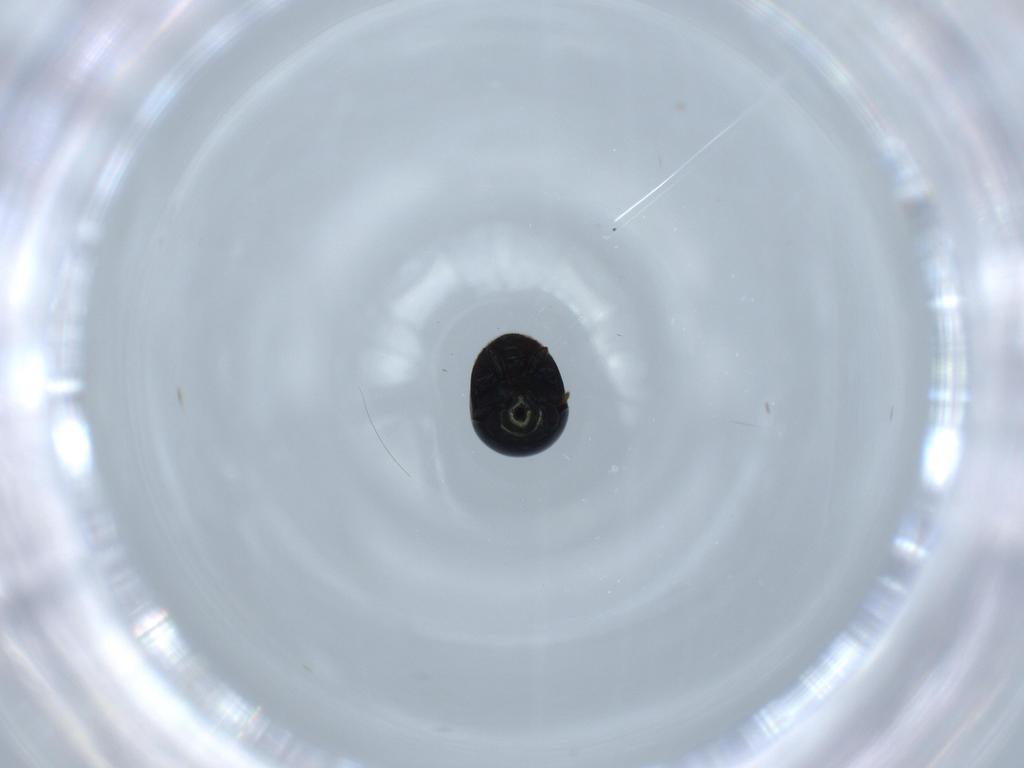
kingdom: Animalia
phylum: Arthropoda
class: Insecta
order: Coleoptera
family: Cybocephalidae
